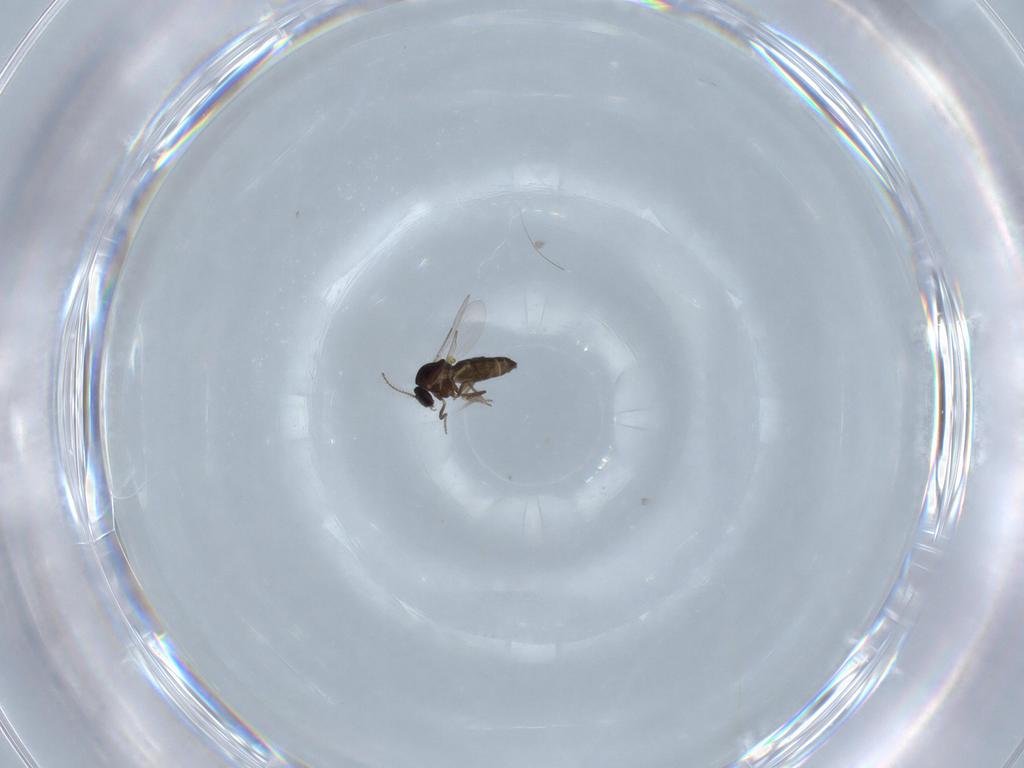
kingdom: Animalia
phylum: Arthropoda
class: Insecta
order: Diptera
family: Ceratopogonidae
